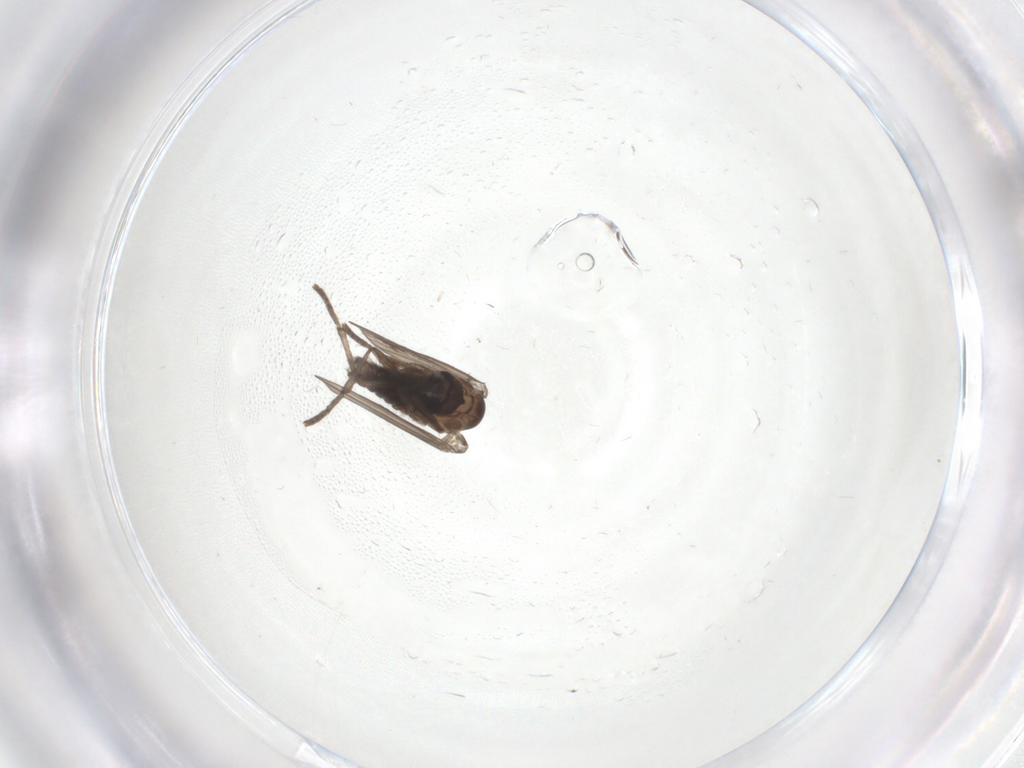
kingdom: Animalia
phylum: Arthropoda
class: Insecta
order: Diptera
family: Psychodidae
